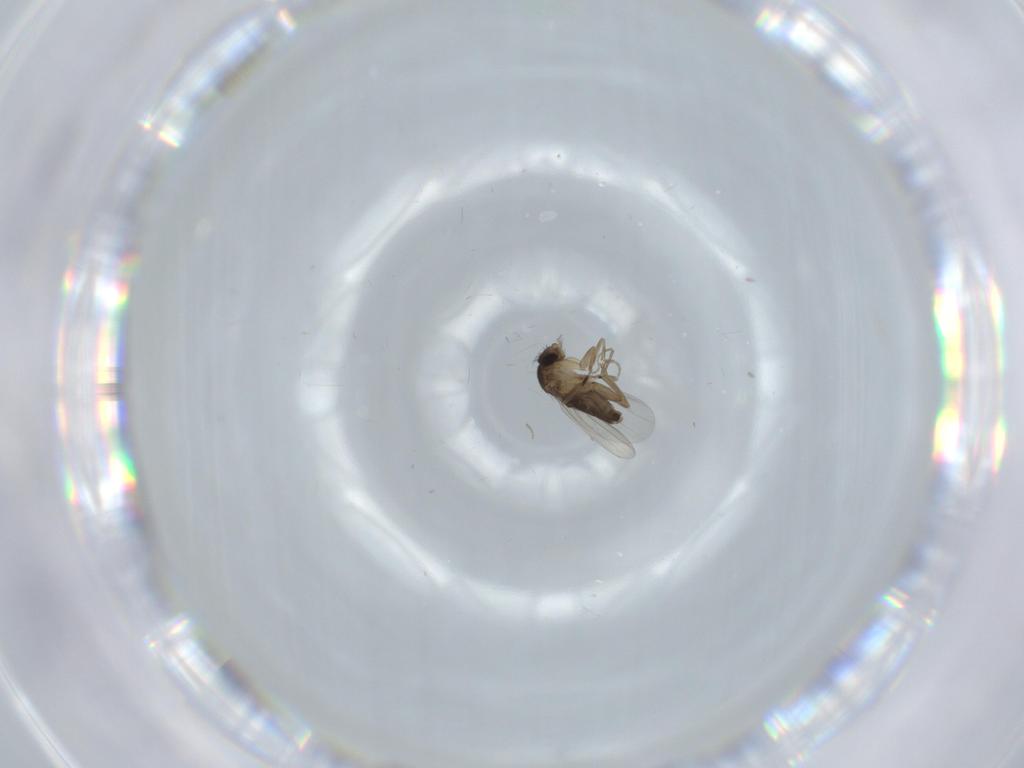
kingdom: Animalia
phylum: Arthropoda
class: Insecta
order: Diptera
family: Phoridae
